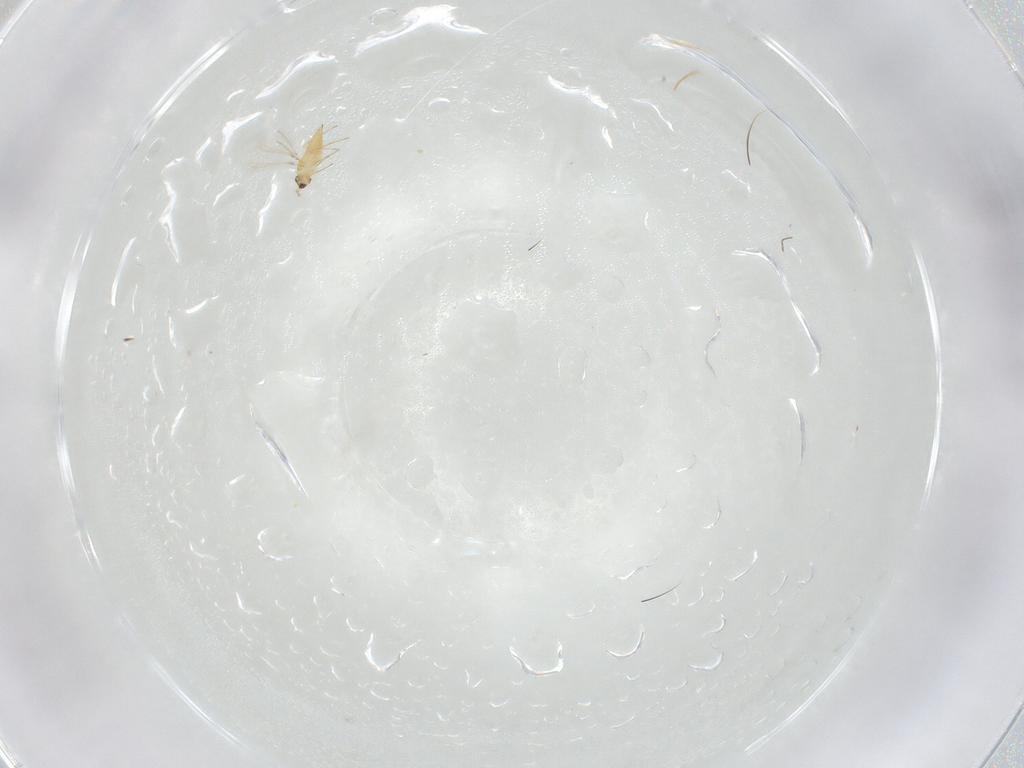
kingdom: Animalia
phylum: Arthropoda
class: Insecta
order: Hymenoptera
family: Mymaridae
